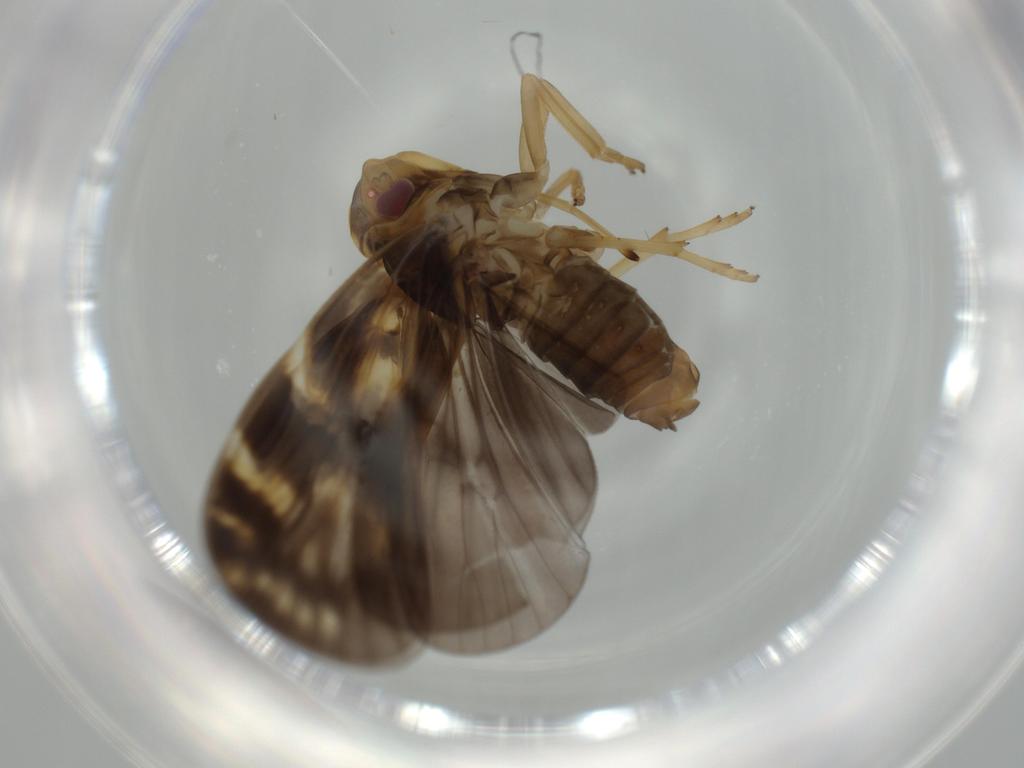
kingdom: Animalia
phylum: Arthropoda
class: Insecta
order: Hemiptera
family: Cixiidae
